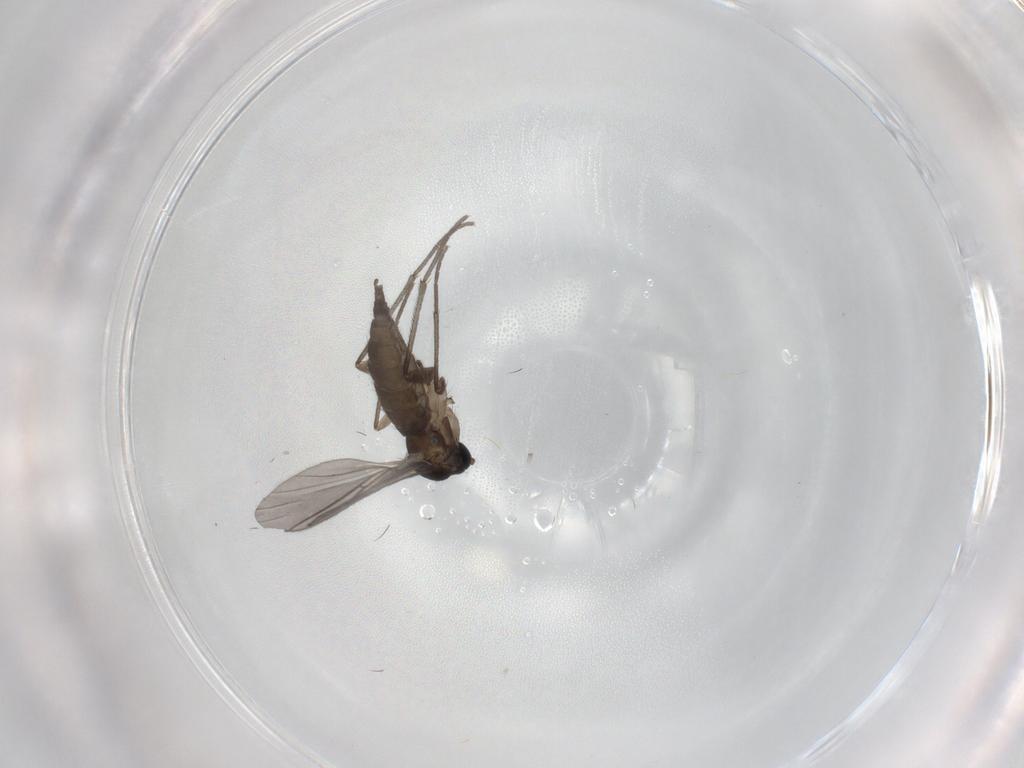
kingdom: Animalia
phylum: Arthropoda
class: Insecta
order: Diptera
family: Sciaridae
